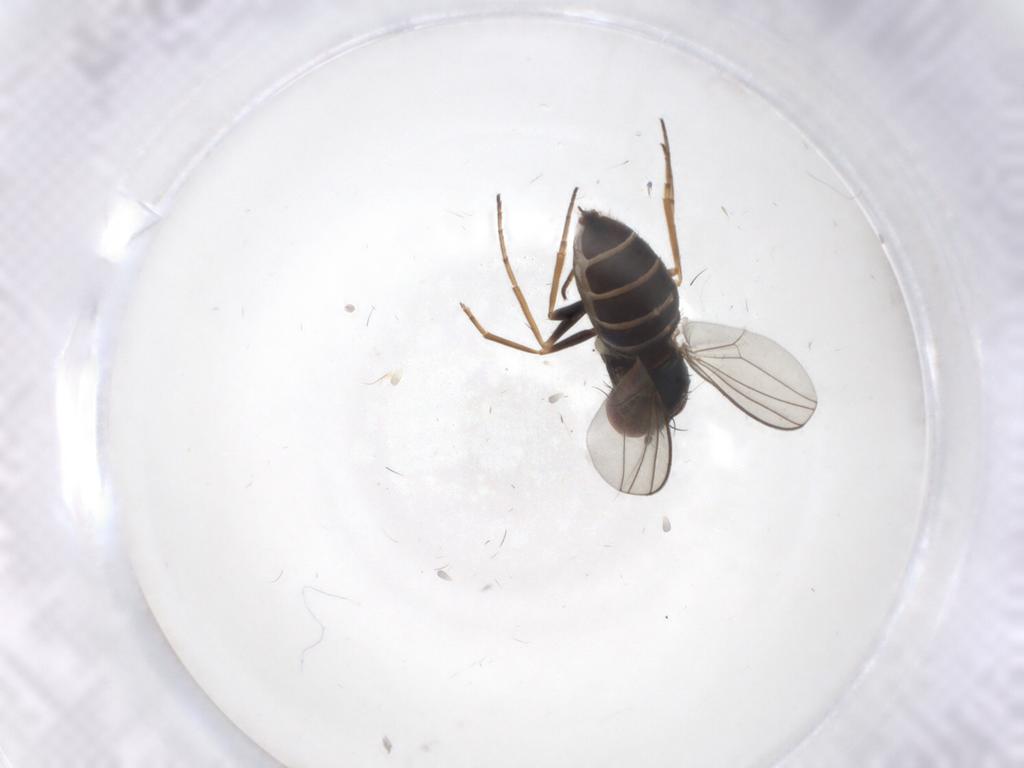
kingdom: Animalia
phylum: Arthropoda
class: Insecta
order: Diptera
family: Dolichopodidae
